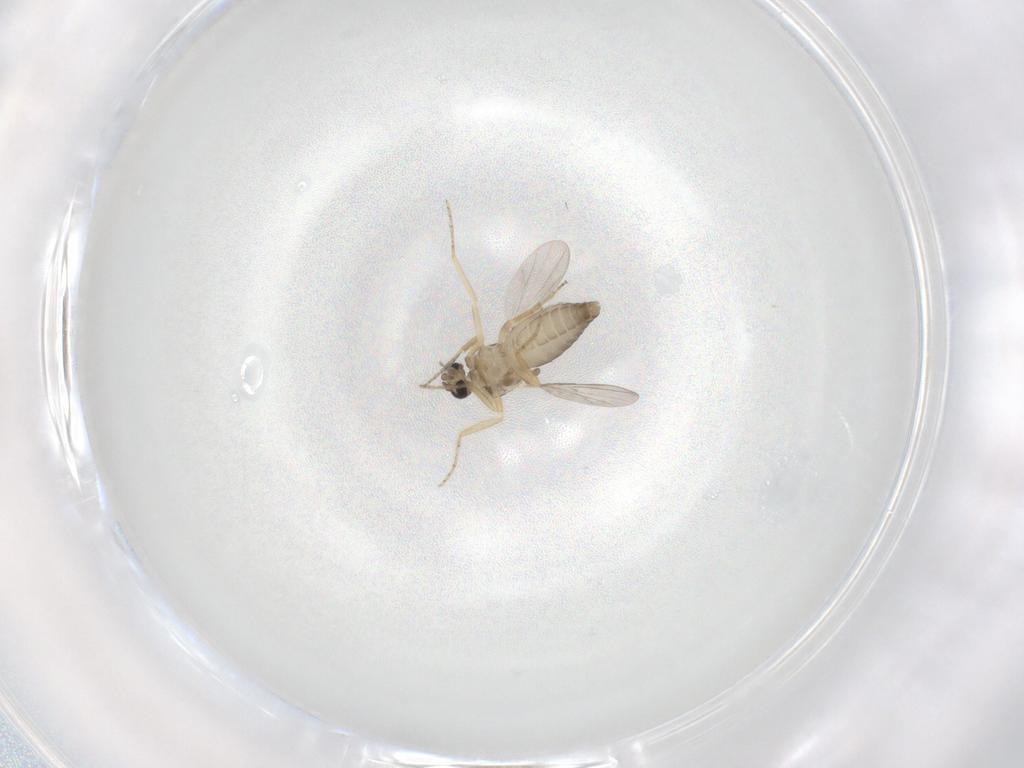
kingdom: Animalia
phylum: Arthropoda
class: Insecta
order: Diptera
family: Ceratopogonidae
